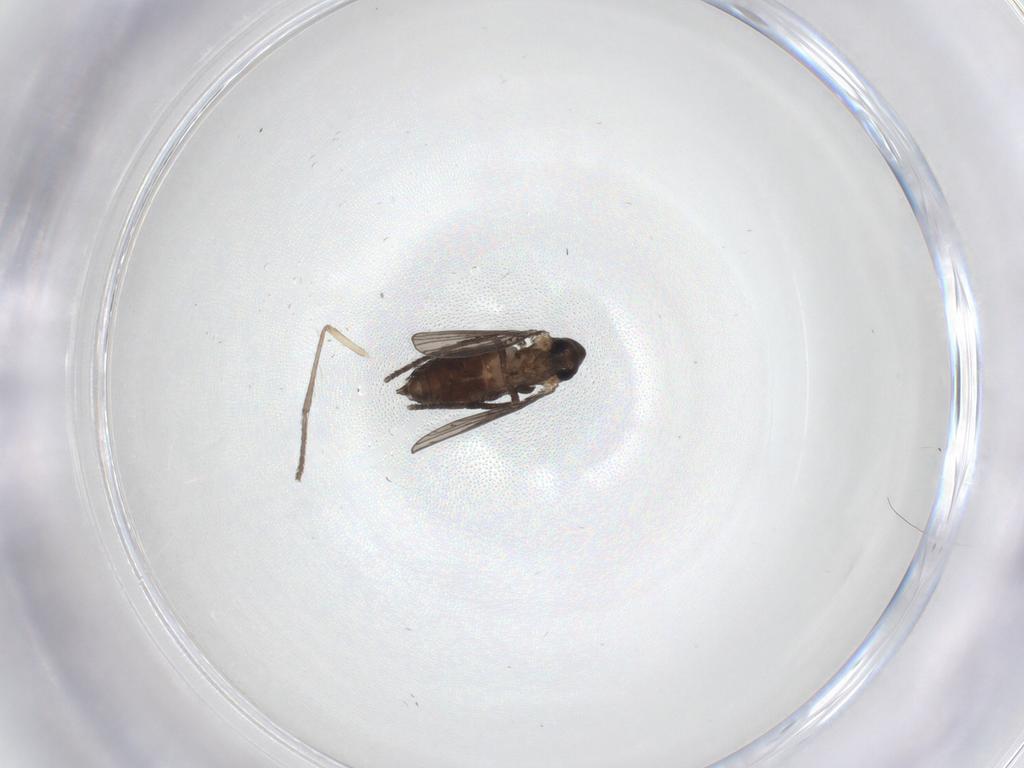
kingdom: Animalia
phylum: Arthropoda
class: Insecta
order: Diptera
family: Psychodidae
